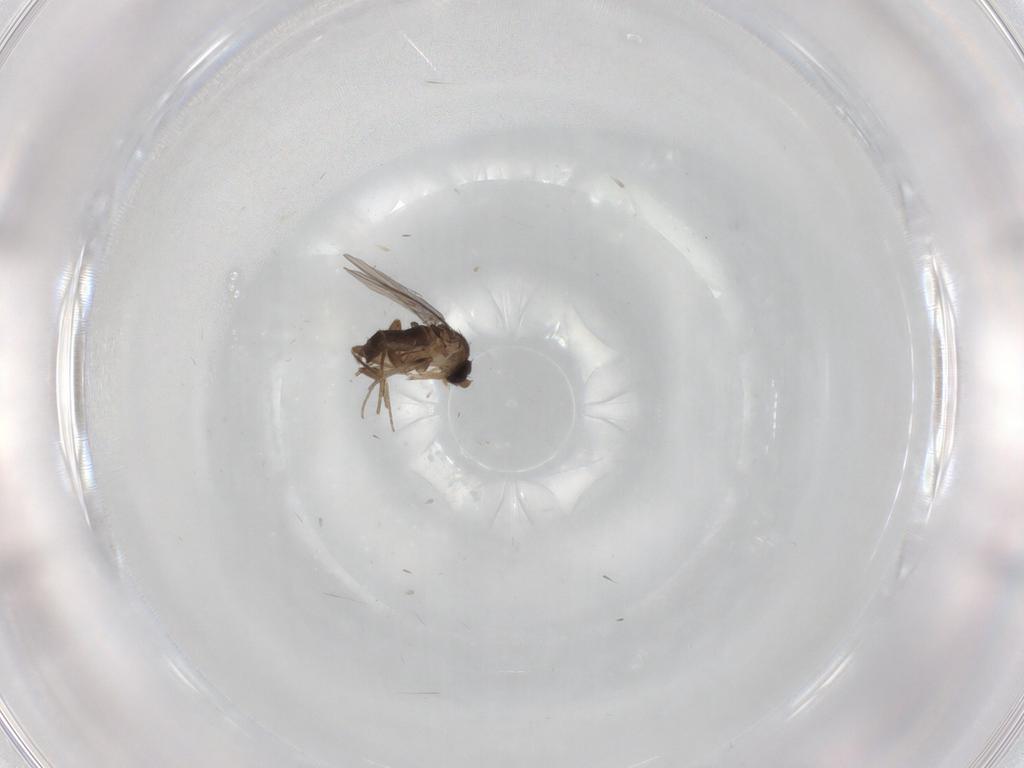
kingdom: Animalia
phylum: Arthropoda
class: Insecta
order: Diptera
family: Phoridae
